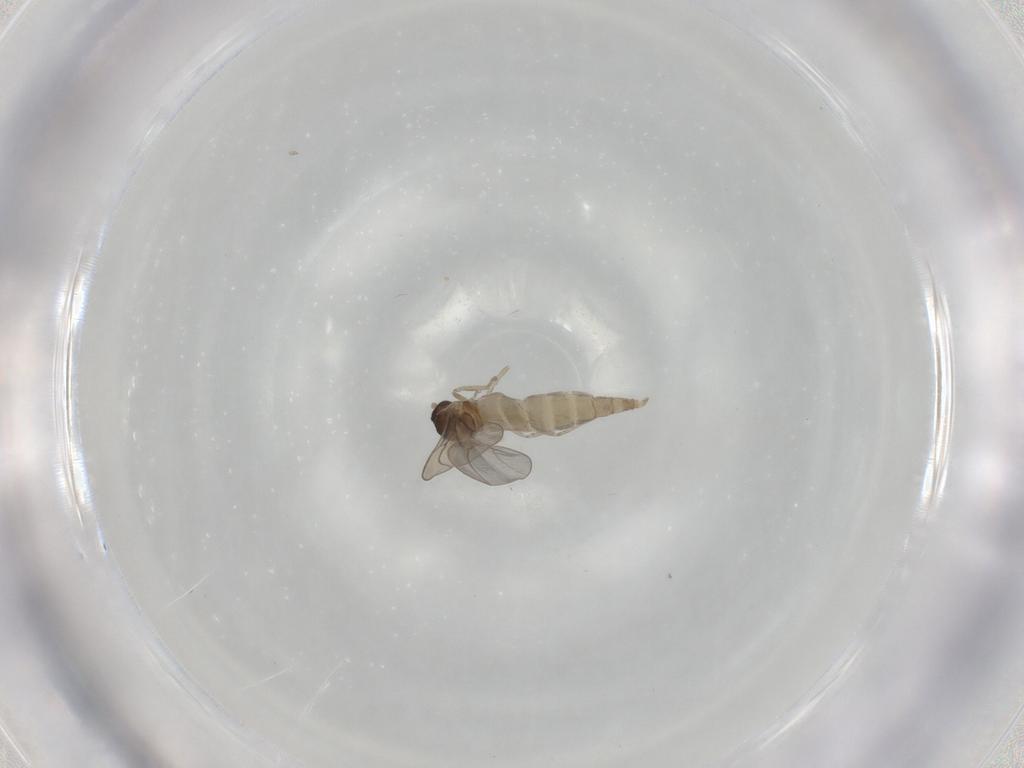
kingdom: Animalia
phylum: Arthropoda
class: Insecta
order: Diptera
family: Cecidomyiidae
